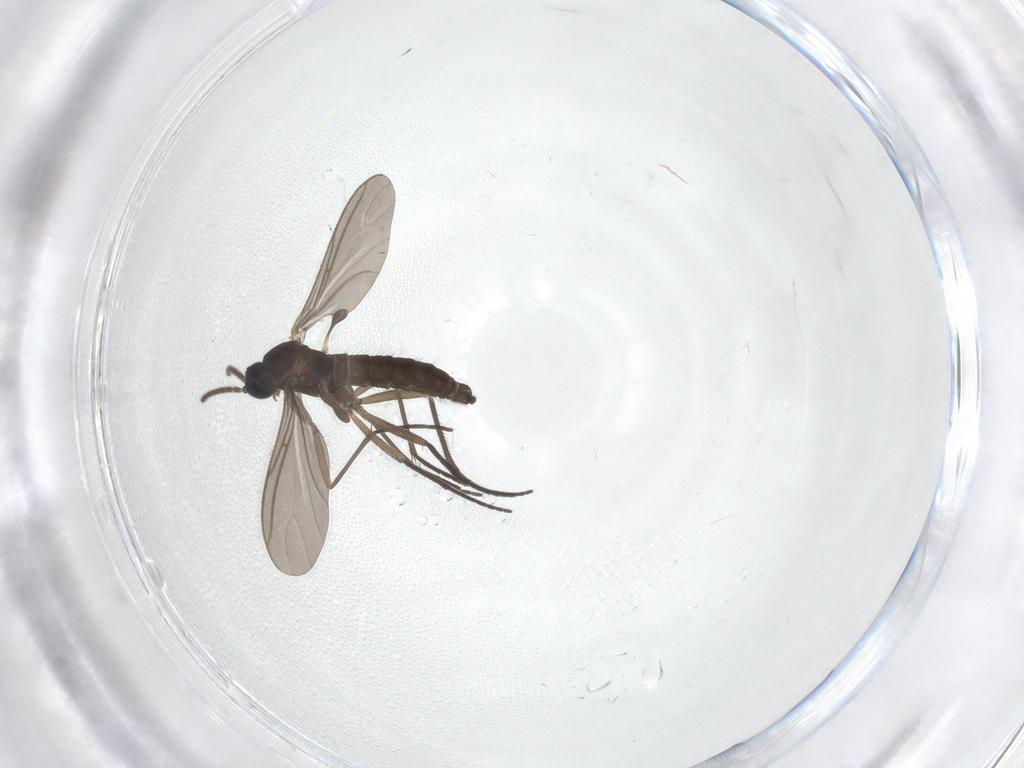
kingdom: Animalia
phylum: Arthropoda
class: Insecta
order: Diptera
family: Sciaridae
